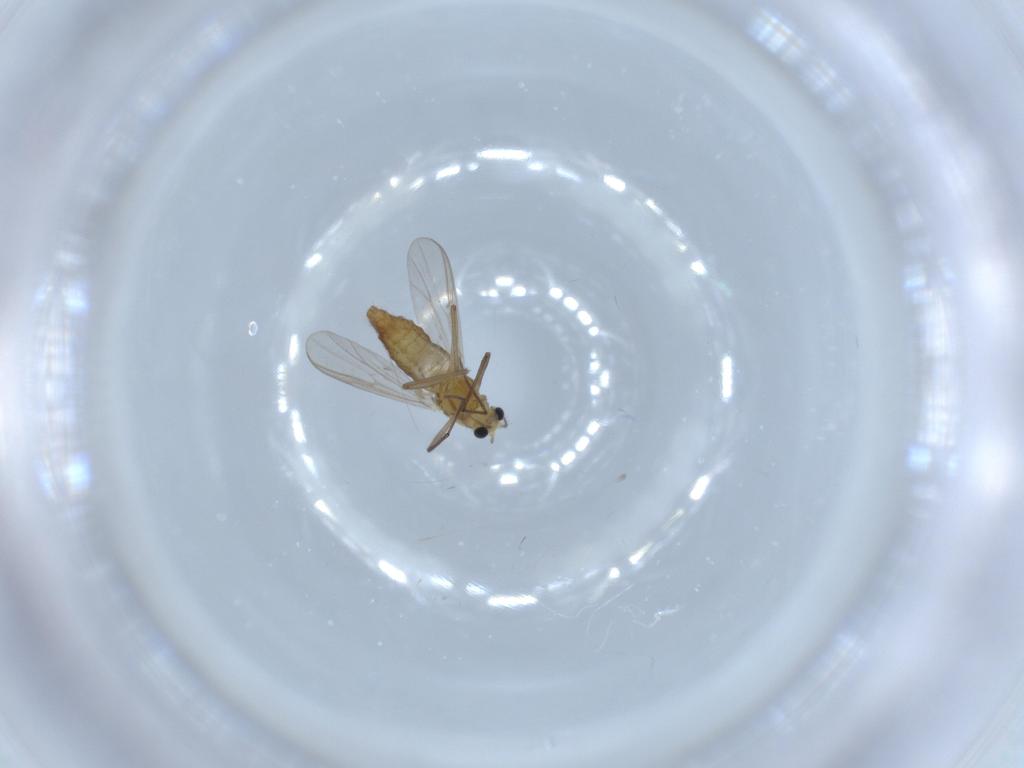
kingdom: Animalia
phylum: Arthropoda
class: Insecta
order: Diptera
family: Chironomidae
